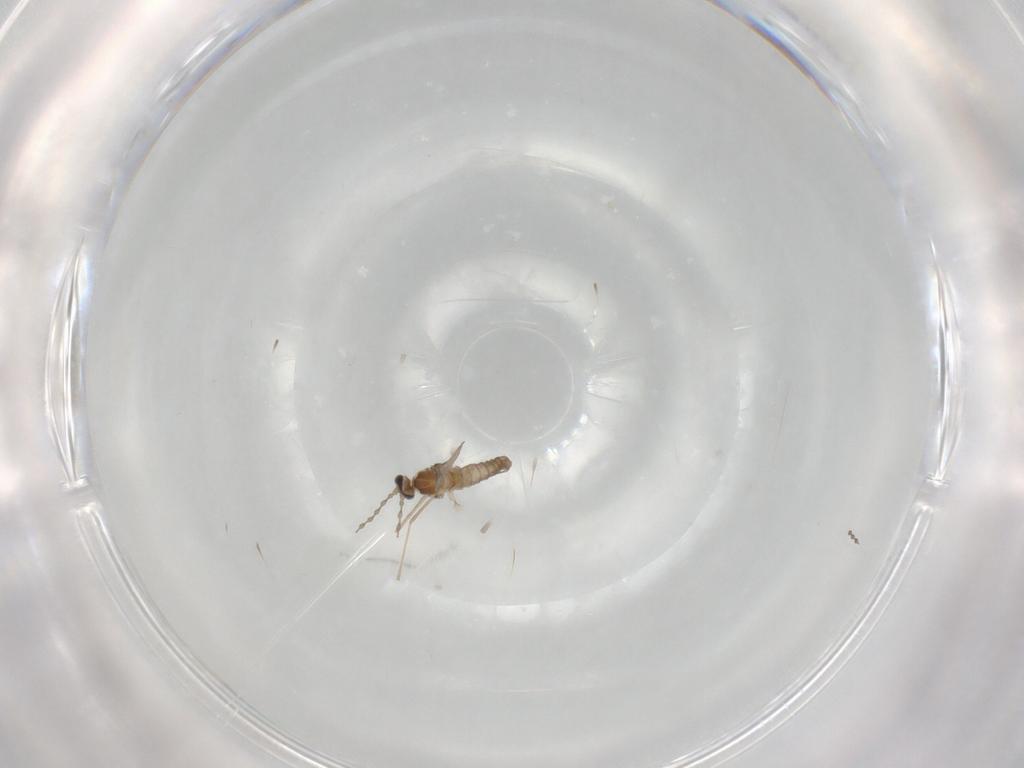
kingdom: Animalia
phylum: Arthropoda
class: Insecta
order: Diptera
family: Cecidomyiidae
